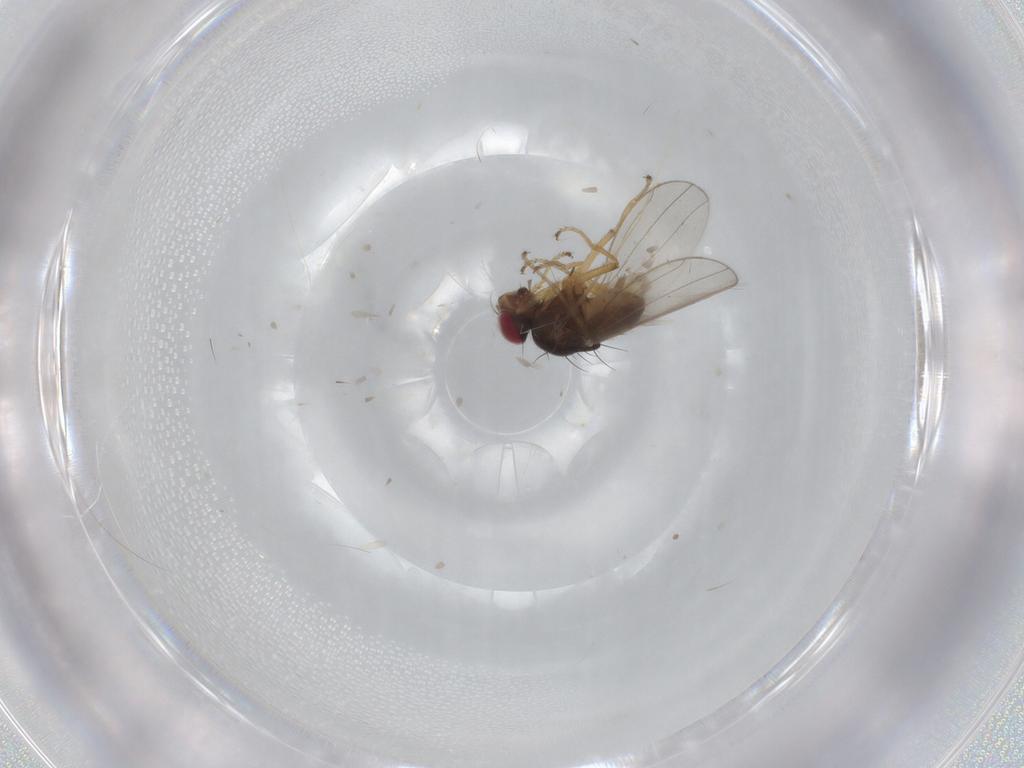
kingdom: Animalia
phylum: Arthropoda
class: Insecta
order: Diptera
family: Ephydridae
